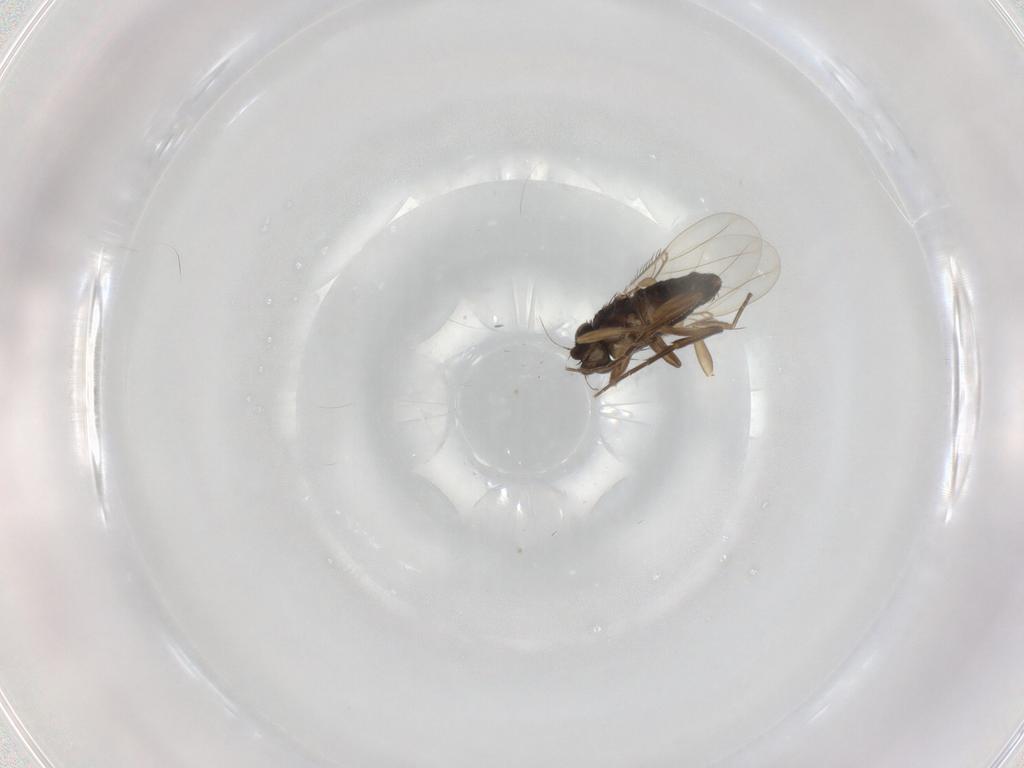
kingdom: Animalia
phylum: Arthropoda
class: Insecta
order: Diptera
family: Phoridae
